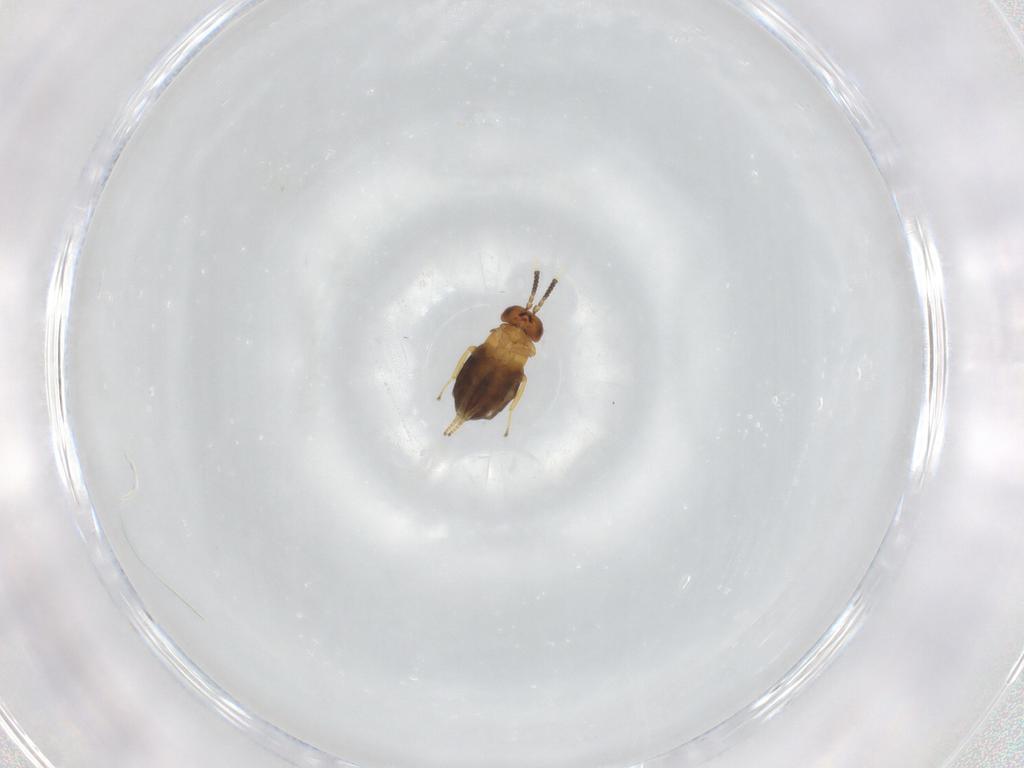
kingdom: Animalia
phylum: Arthropoda
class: Insecta
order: Hymenoptera
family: Encyrtidae
